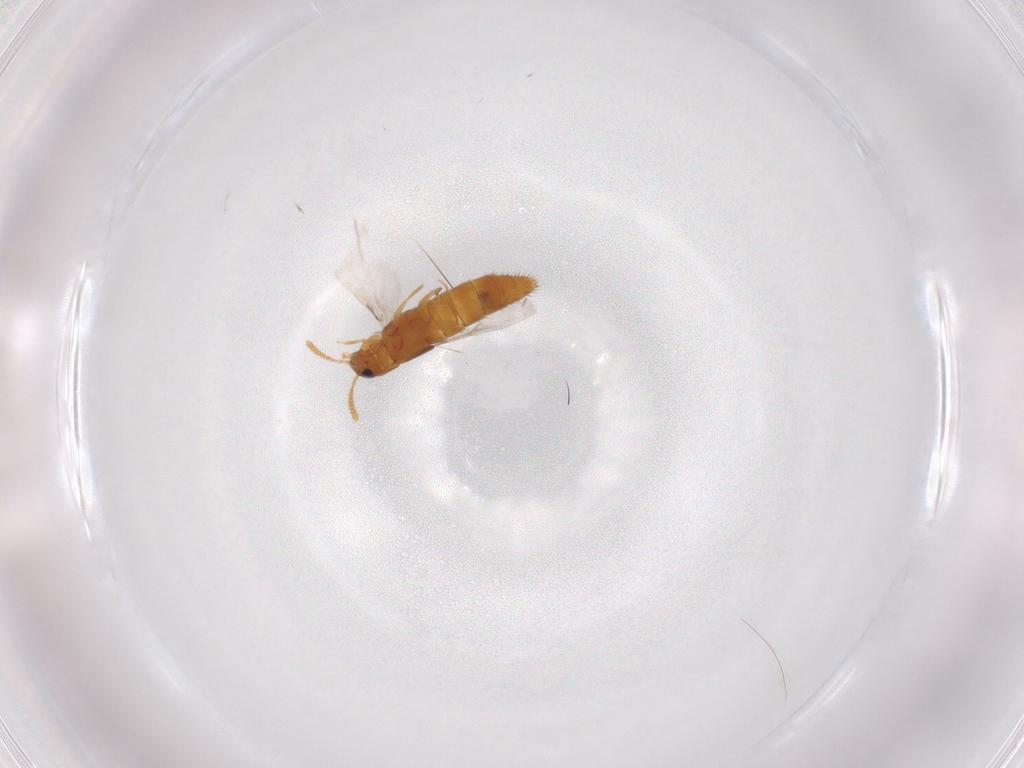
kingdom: Animalia
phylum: Arthropoda
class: Insecta
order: Coleoptera
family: Staphylinidae
